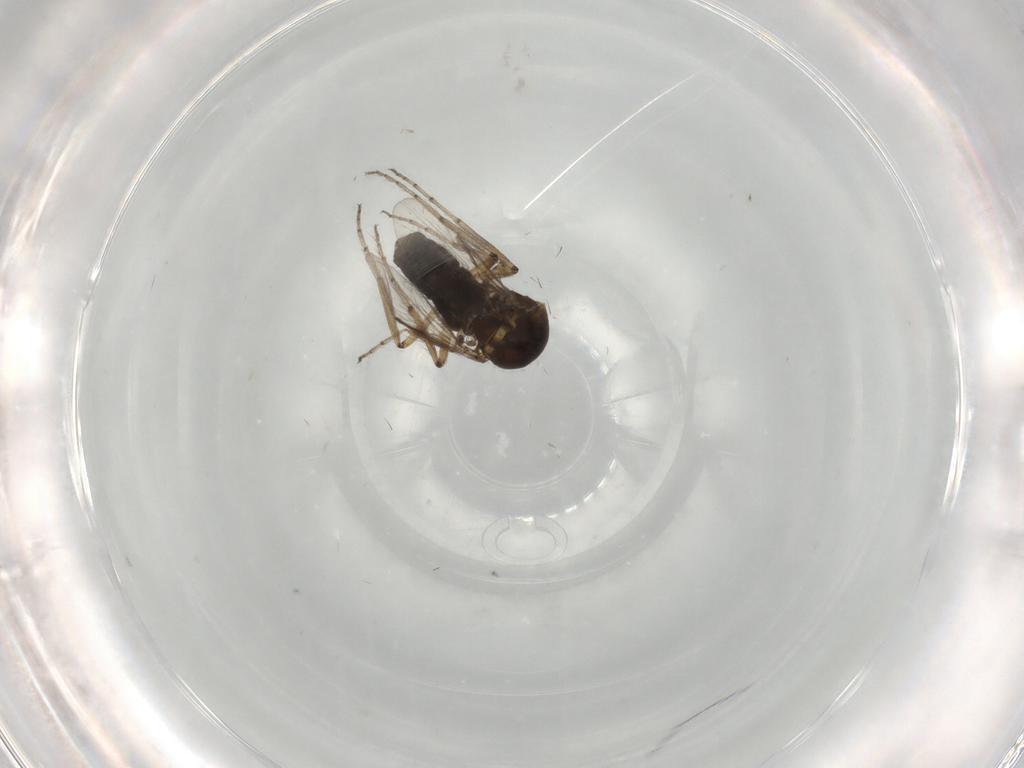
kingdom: Animalia
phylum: Arthropoda
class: Insecta
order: Diptera
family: Ceratopogonidae
